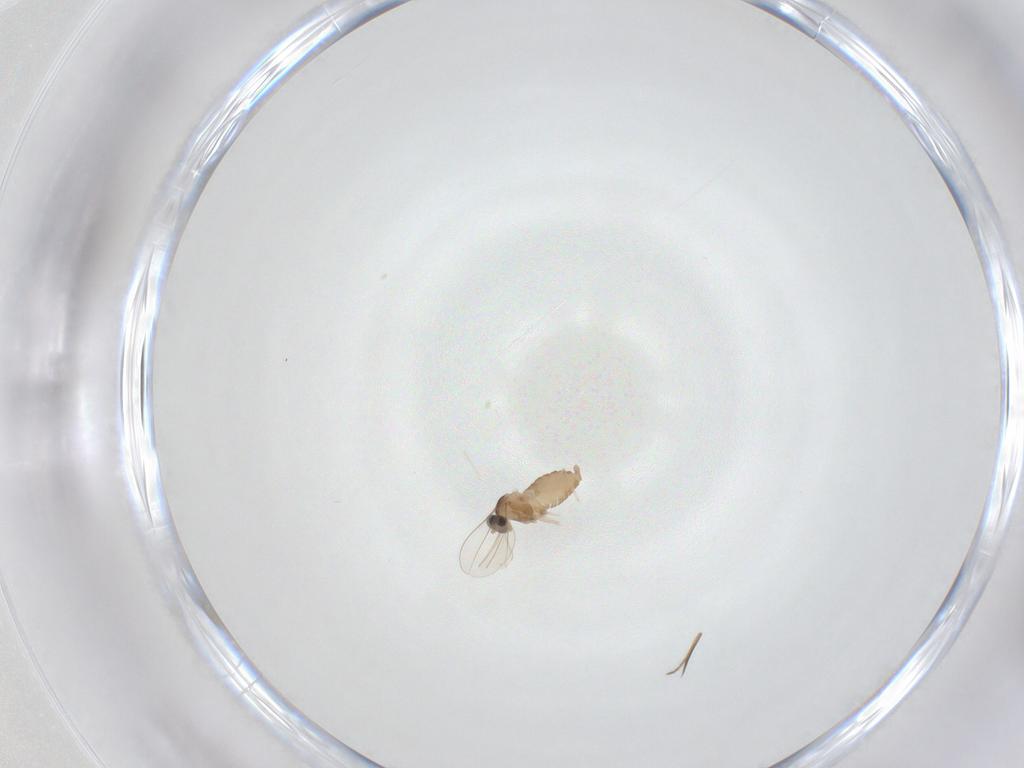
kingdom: Animalia
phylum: Arthropoda
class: Insecta
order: Diptera
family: Cecidomyiidae
